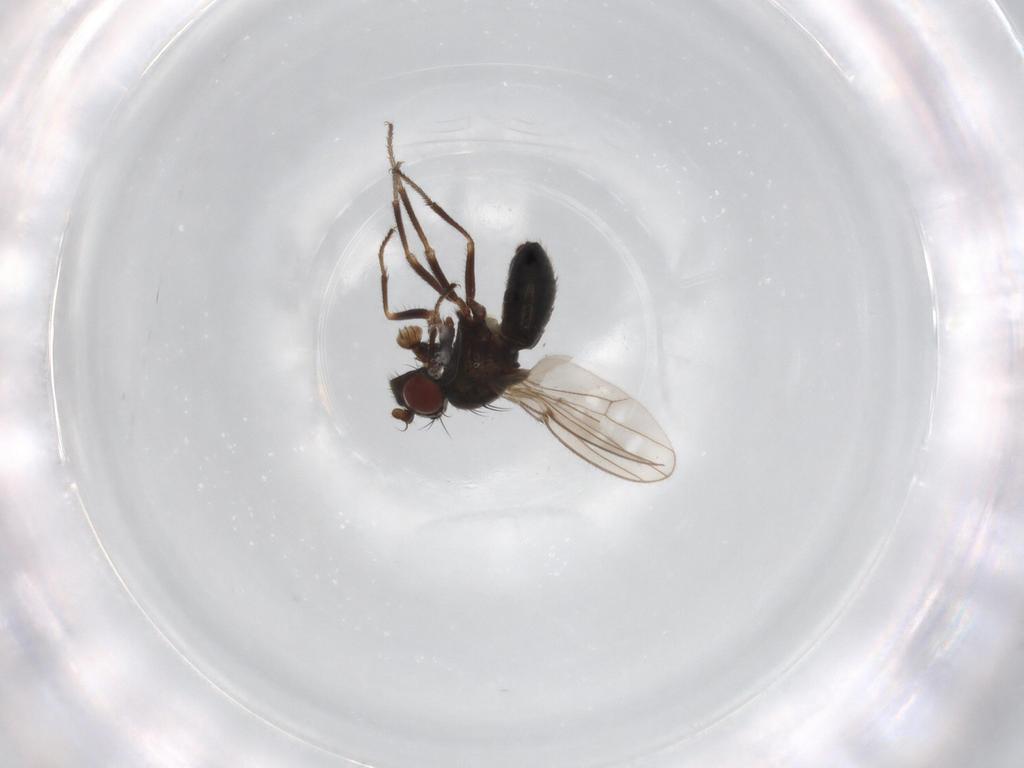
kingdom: Animalia
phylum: Arthropoda
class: Insecta
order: Diptera
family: Ephydridae
